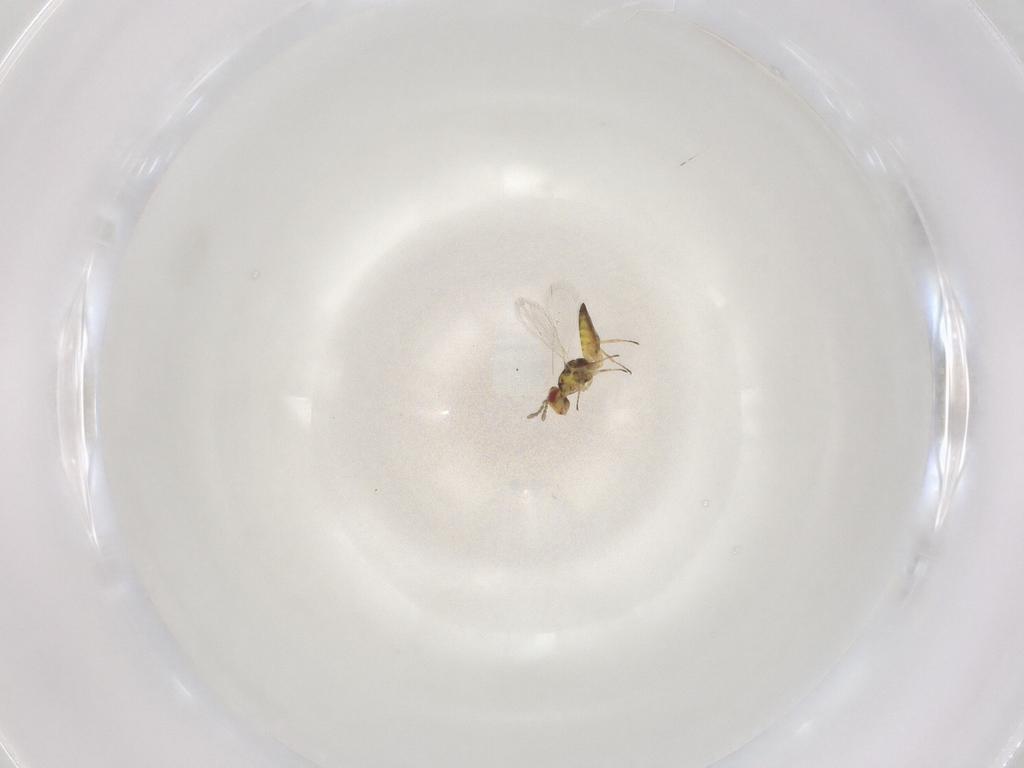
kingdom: Animalia
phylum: Arthropoda
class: Insecta
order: Hymenoptera
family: Eulophidae
